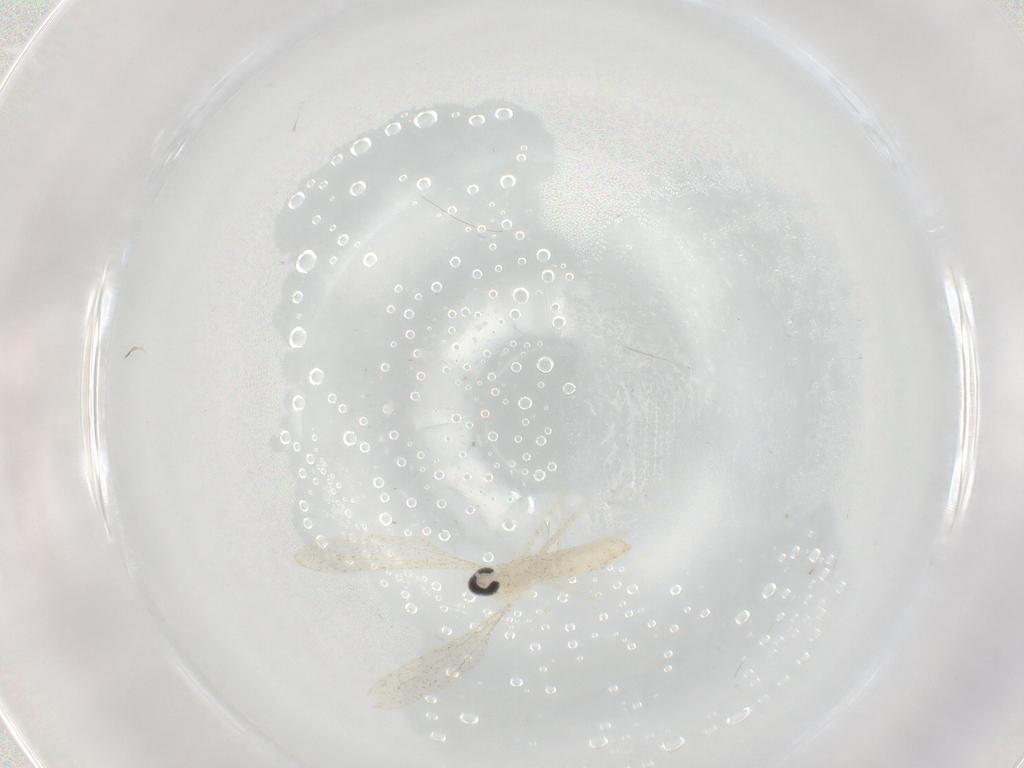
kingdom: Animalia
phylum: Arthropoda
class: Insecta
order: Diptera
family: Cecidomyiidae
